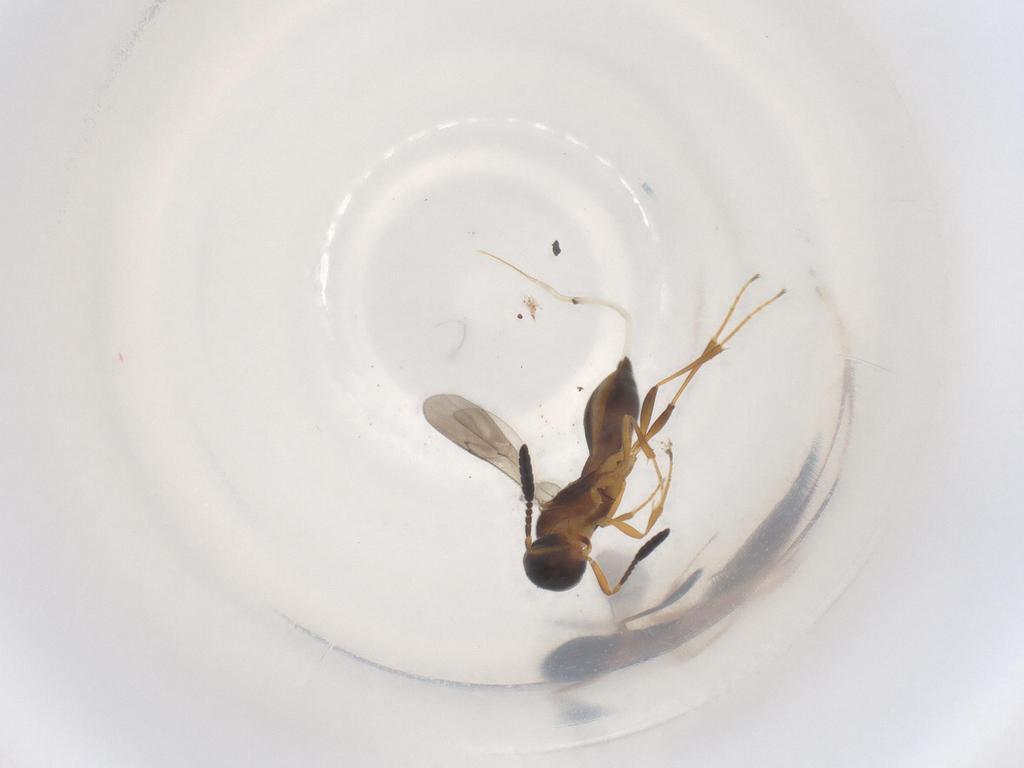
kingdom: Animalia
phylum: Arthropoda
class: Insecta
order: Hymenoptera
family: Scelionidae
